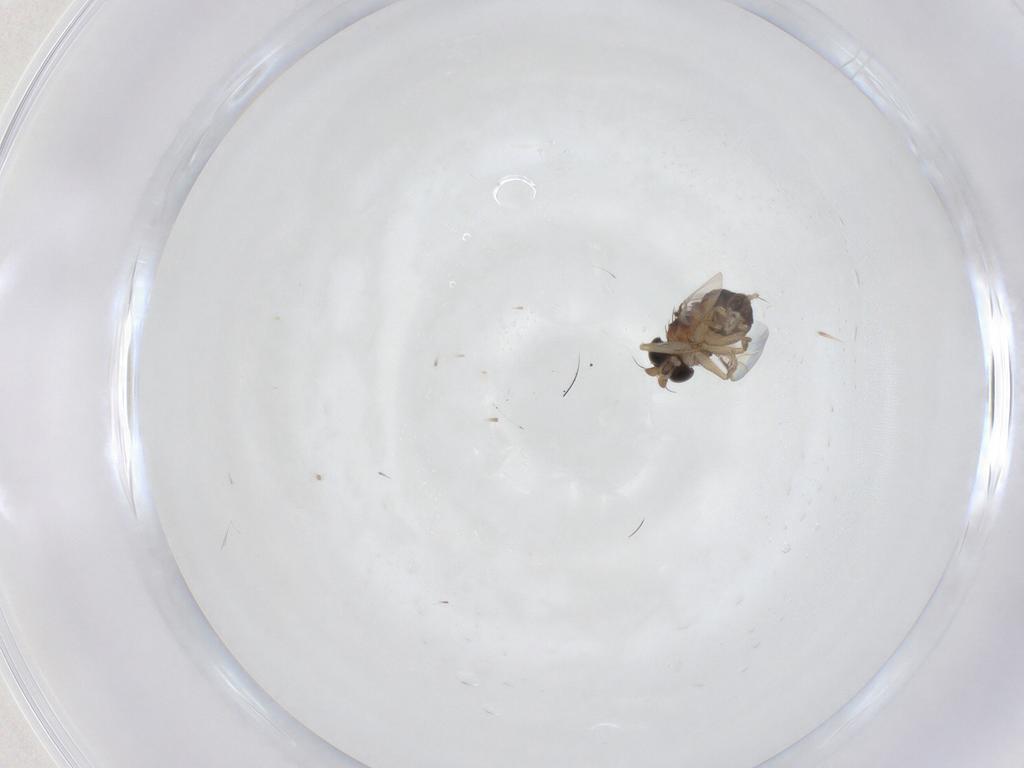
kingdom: Animalia
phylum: Arthropoda
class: Insecta
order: Diptera
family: Phoridae
